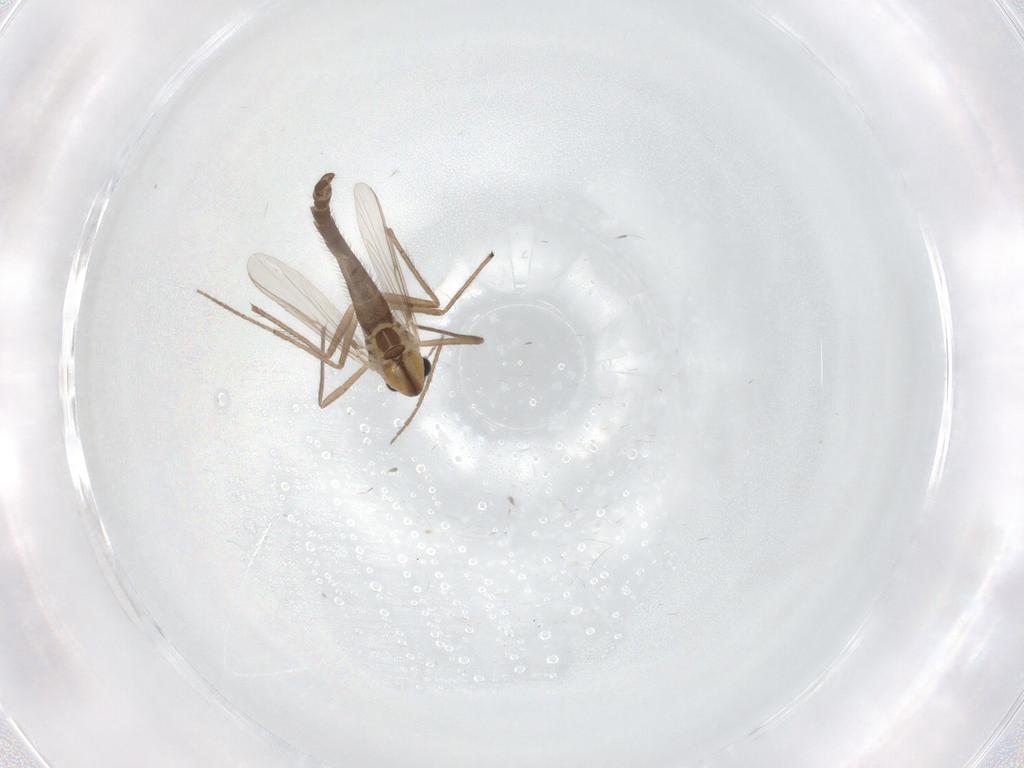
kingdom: Animalia
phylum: Arthropoda
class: Insecta
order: Diptera
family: Chironomidae
